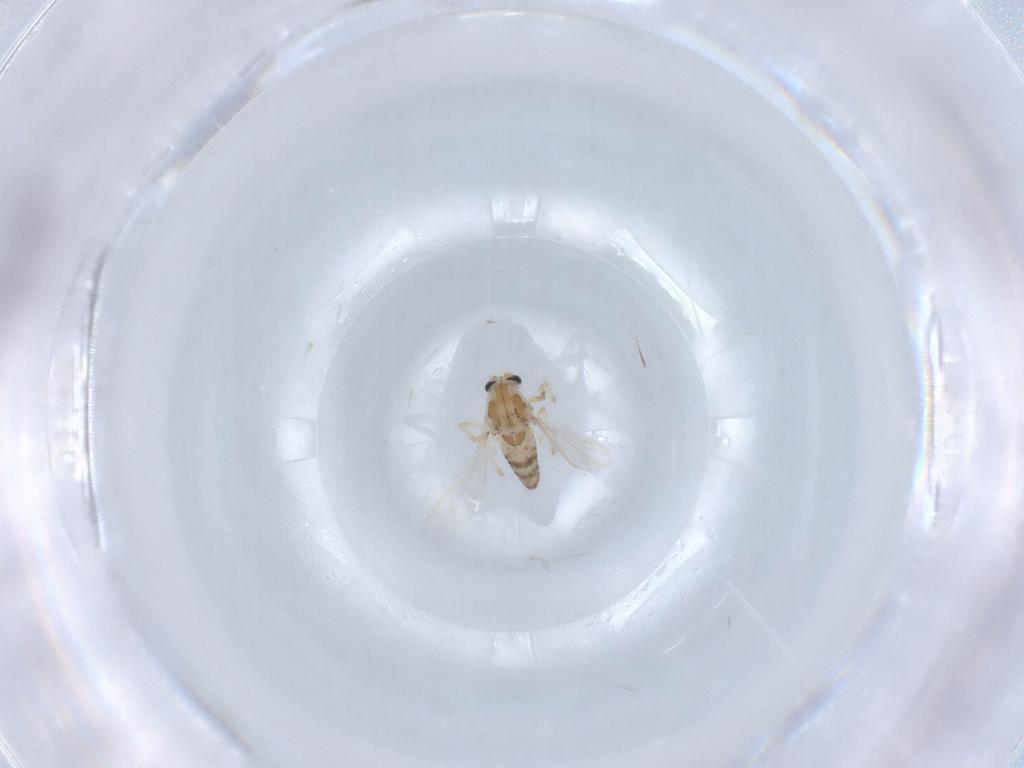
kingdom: Animalia
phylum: Arthropoda
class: Insecta
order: Diptera
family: Chironomidae
